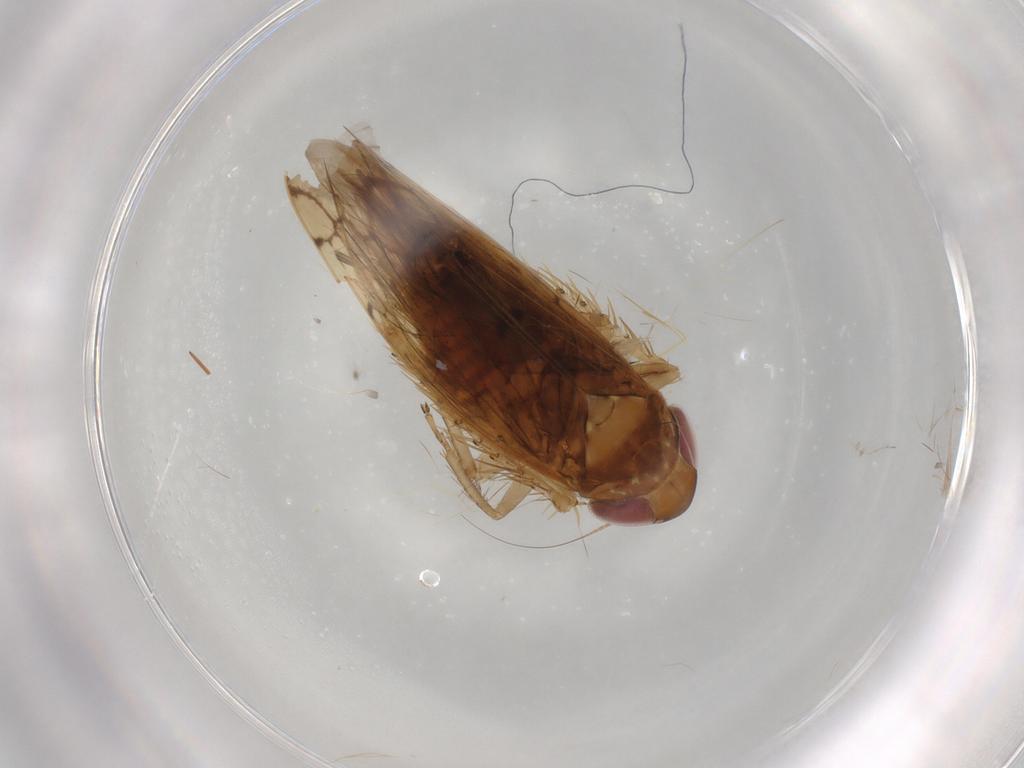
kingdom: Animalia
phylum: Arthropoda
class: Insecta
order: Hemiptera
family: Cicadellidae
